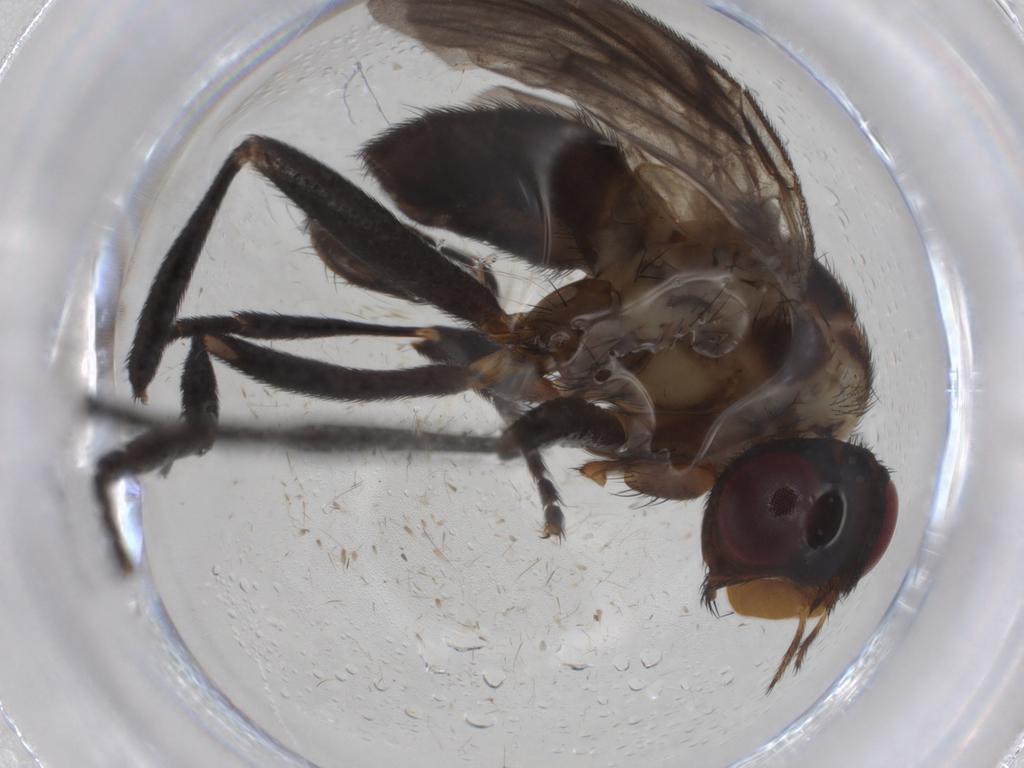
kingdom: Animalia
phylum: Arthropoda
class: Insecta
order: Diptera
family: Calliphoridae
